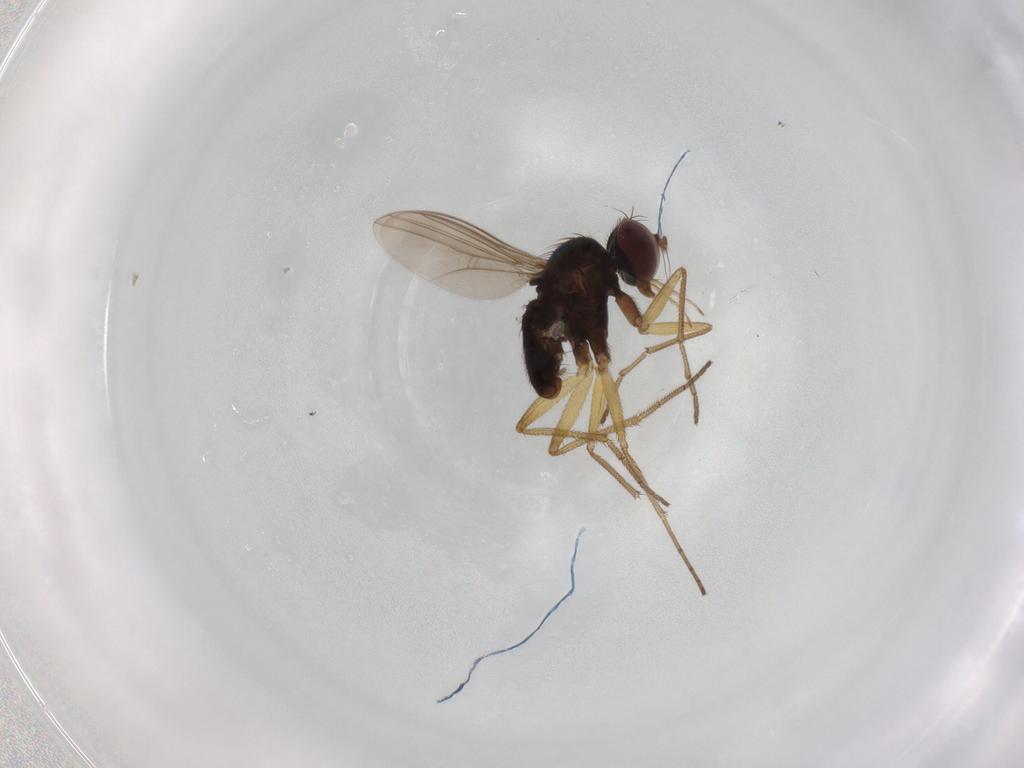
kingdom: Animalia
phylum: Arthropoda
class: Insecta
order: Diptera
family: Dolichopodidae
